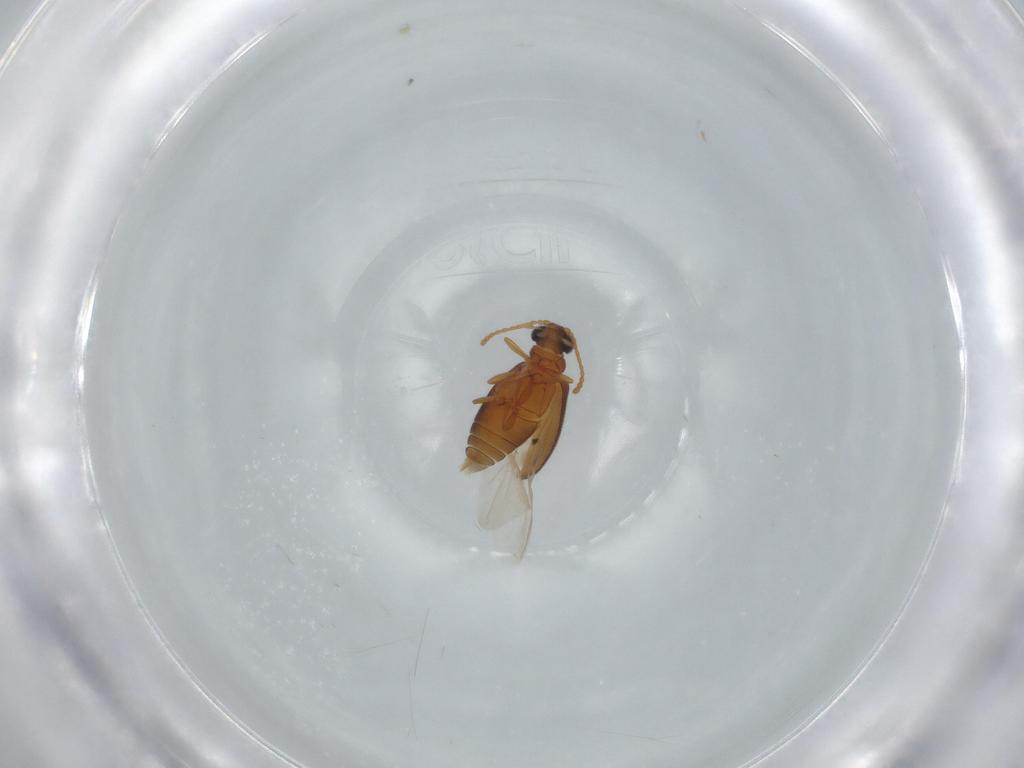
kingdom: Animalia
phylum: Arthropoda
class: Insecta
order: Coleoptera
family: Aderidae
